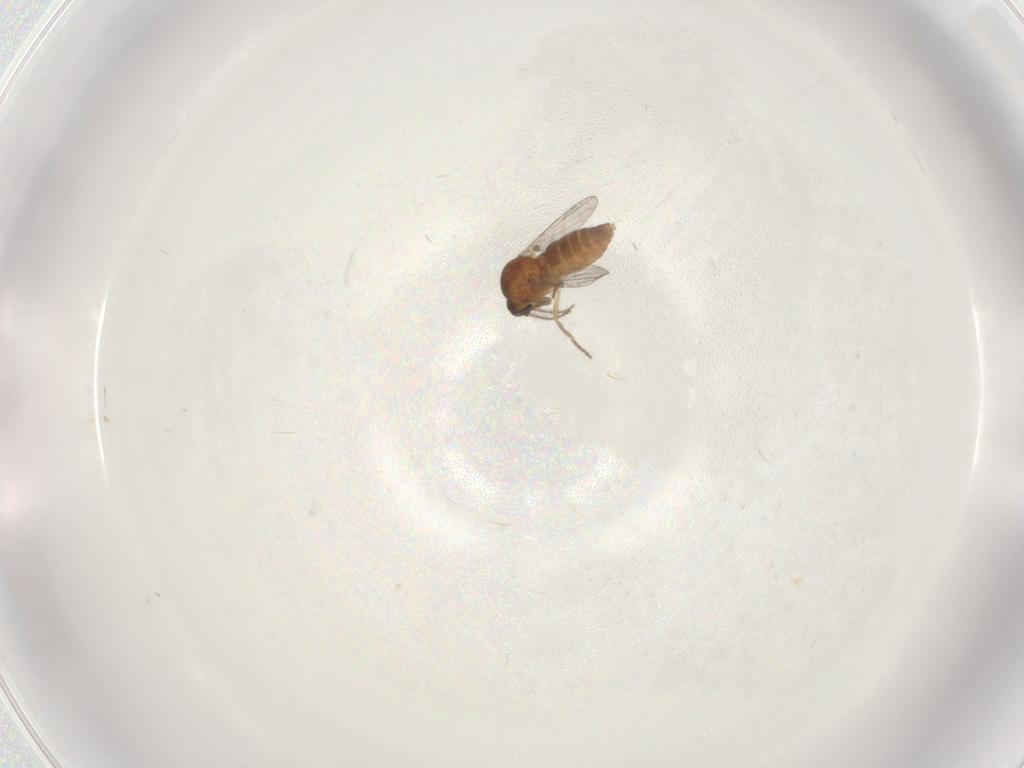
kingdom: Animalia
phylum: Arthropoda
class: Insecta
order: Diptera
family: Ceratopogonidae
